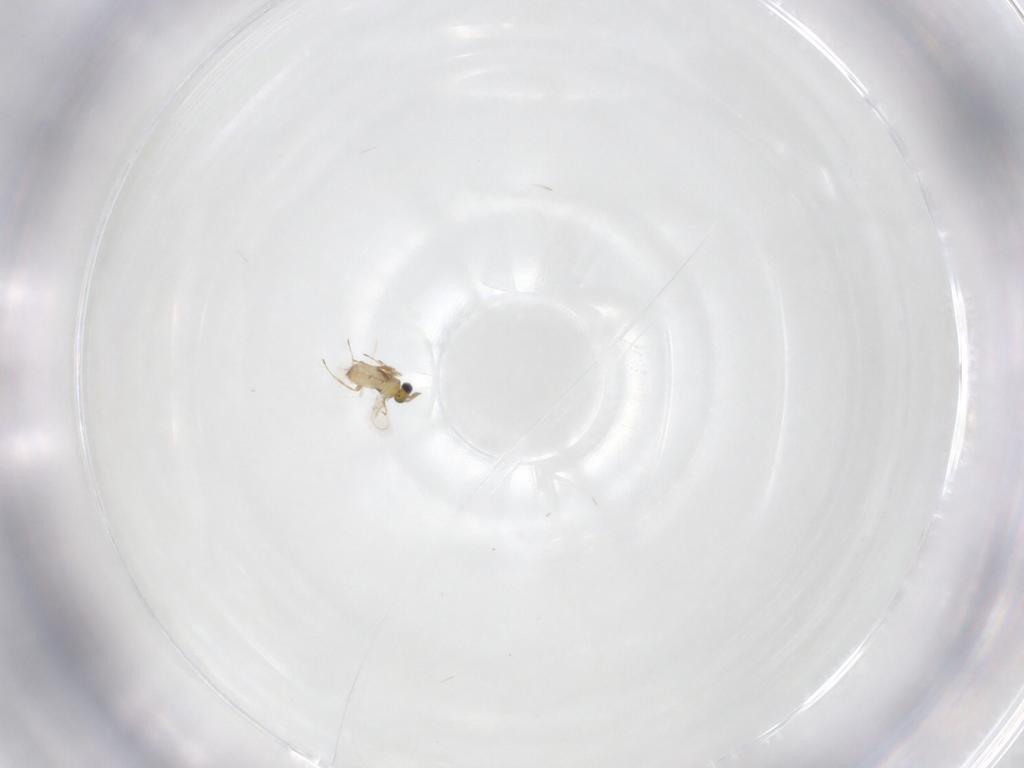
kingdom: Animalia
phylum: Arthropoda
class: Insecta
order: Hymenoptera
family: Trichogrammatidae
